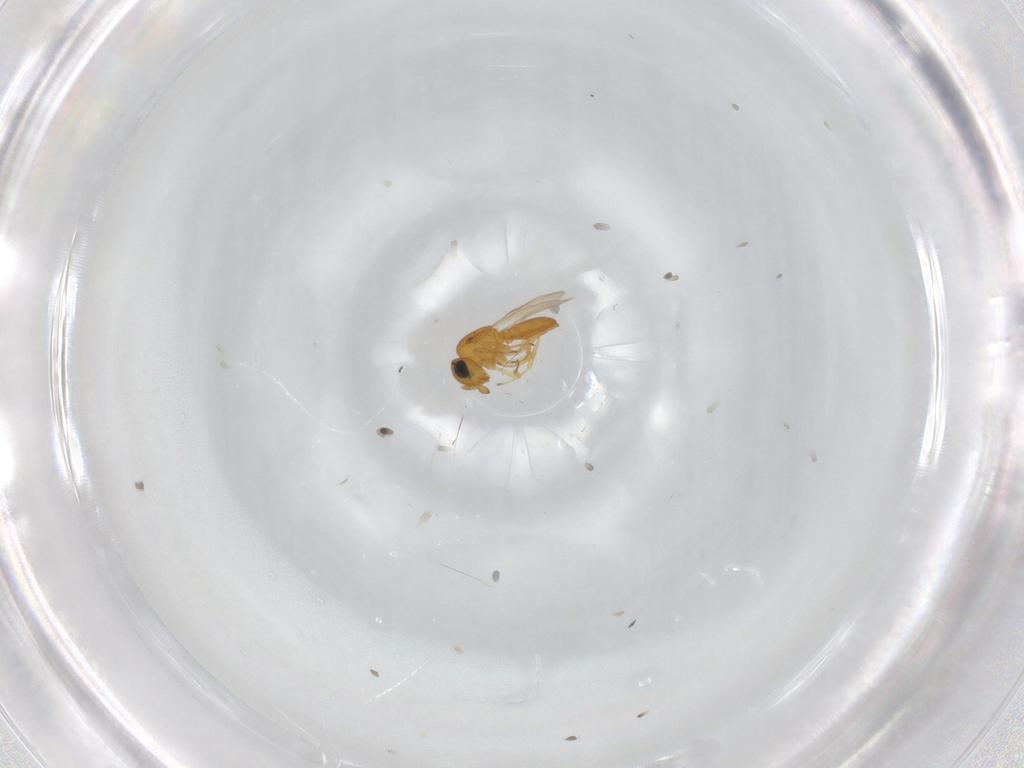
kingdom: Animalia
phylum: Arthropoda
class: Insecta
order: Hymenoptera
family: Scelionidae
